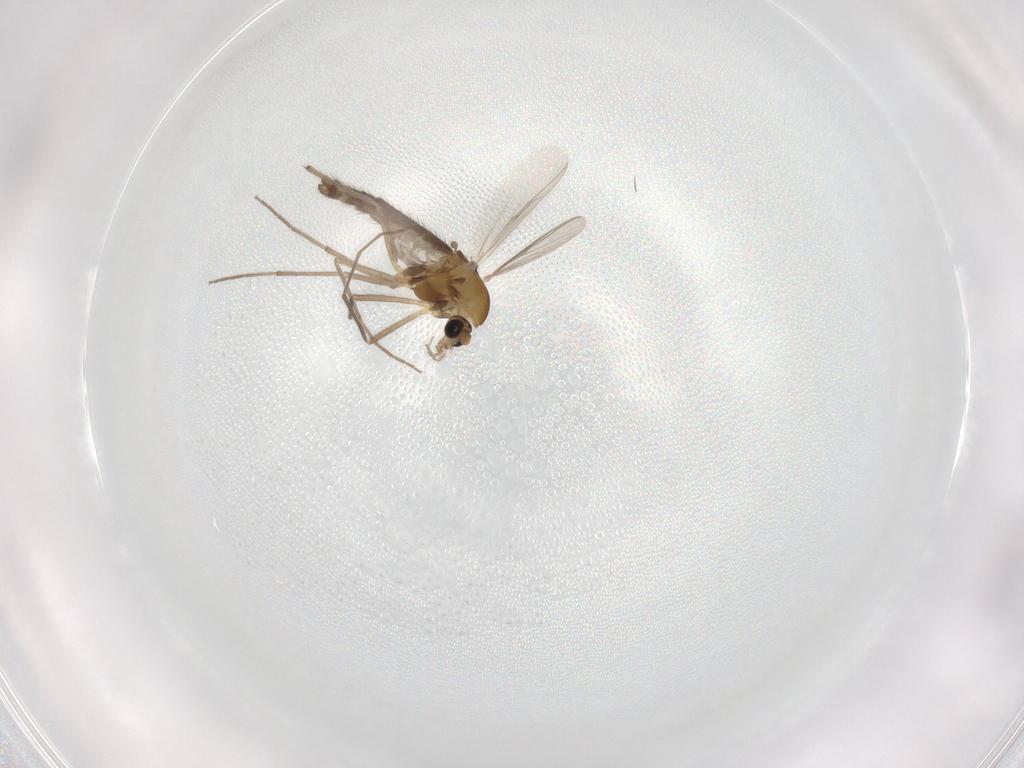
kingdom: Animalia
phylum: Arthropoda
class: Insecta
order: Diptera
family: Chironomidae
